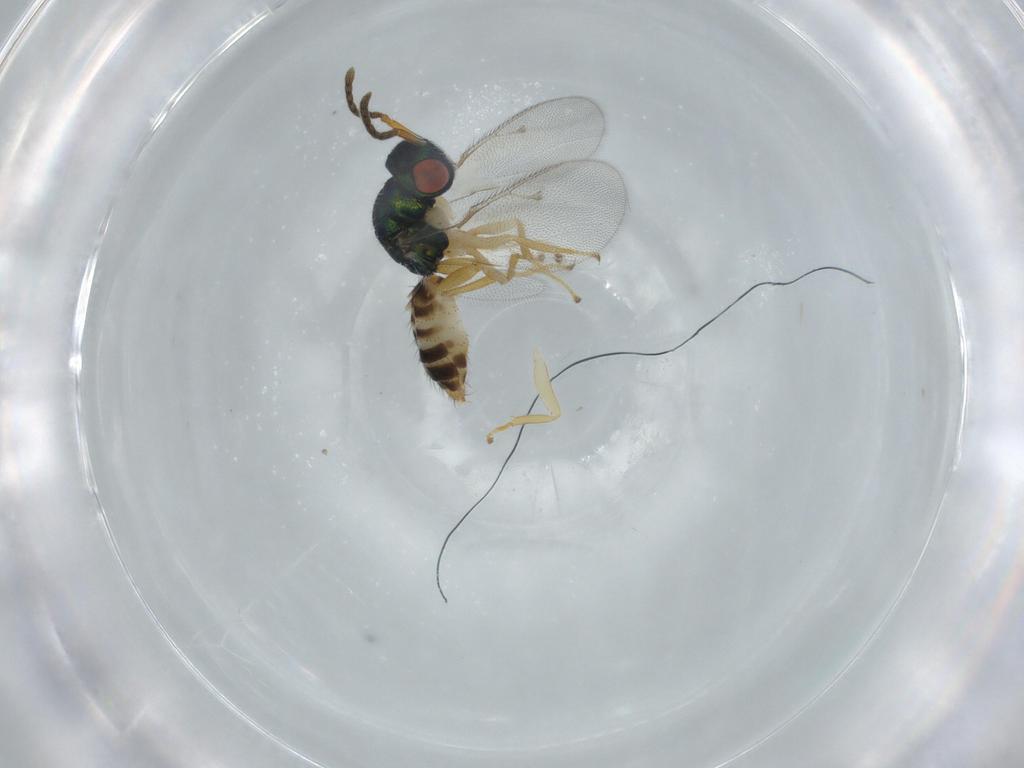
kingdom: Animalia
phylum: Arthropoda
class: Insecta
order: Hymenoptera
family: Pteromalidae
